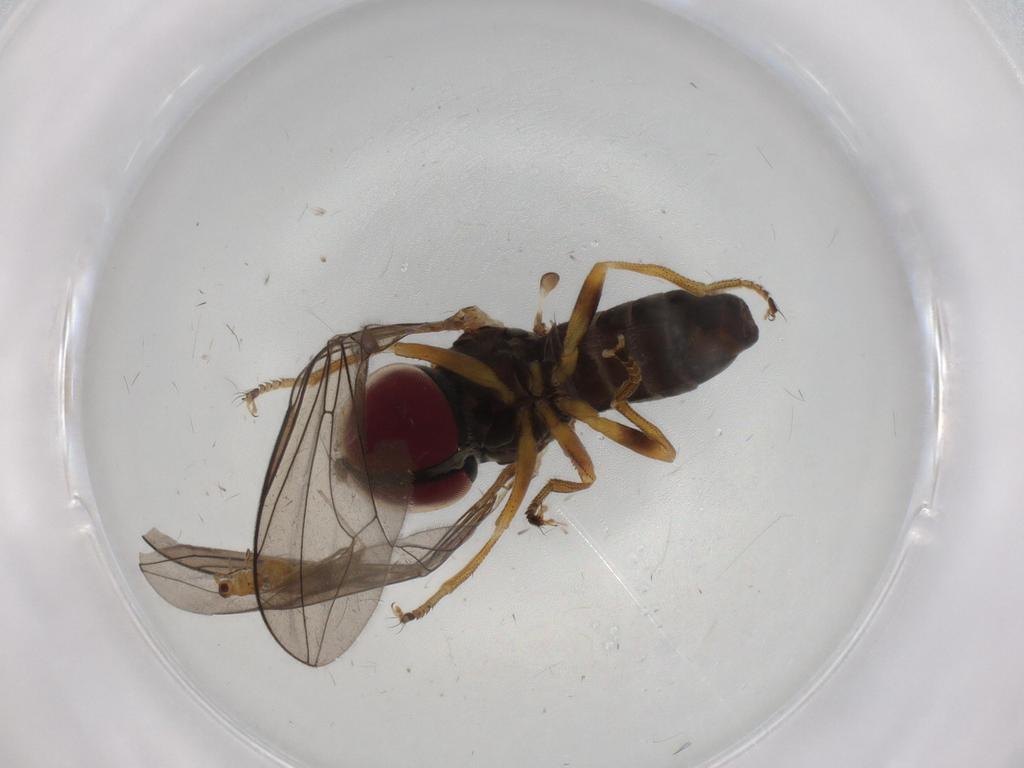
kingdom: Animalia
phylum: Arthropoda
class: Insecta
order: Diptera
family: Pipunculidae
